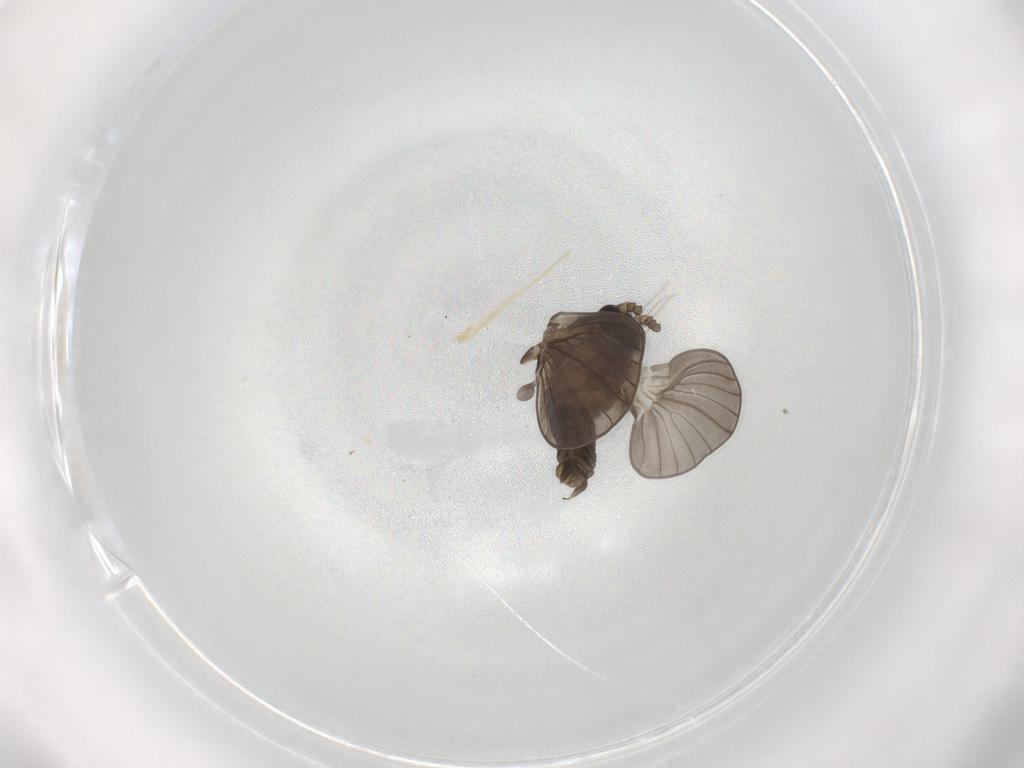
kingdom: Animalia
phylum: Arthropoda
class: Insecta
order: Diptera
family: Psychodidae
